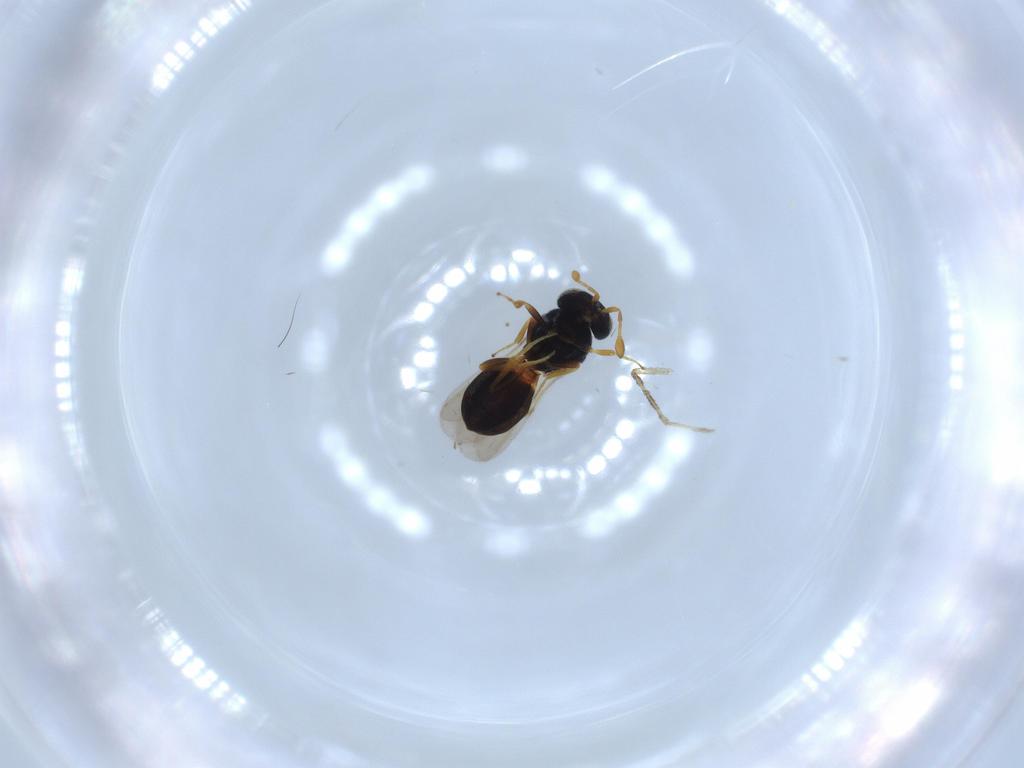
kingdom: Animalia
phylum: Arthropoda
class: Insecta
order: Hymenoptera
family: Scelionidae
